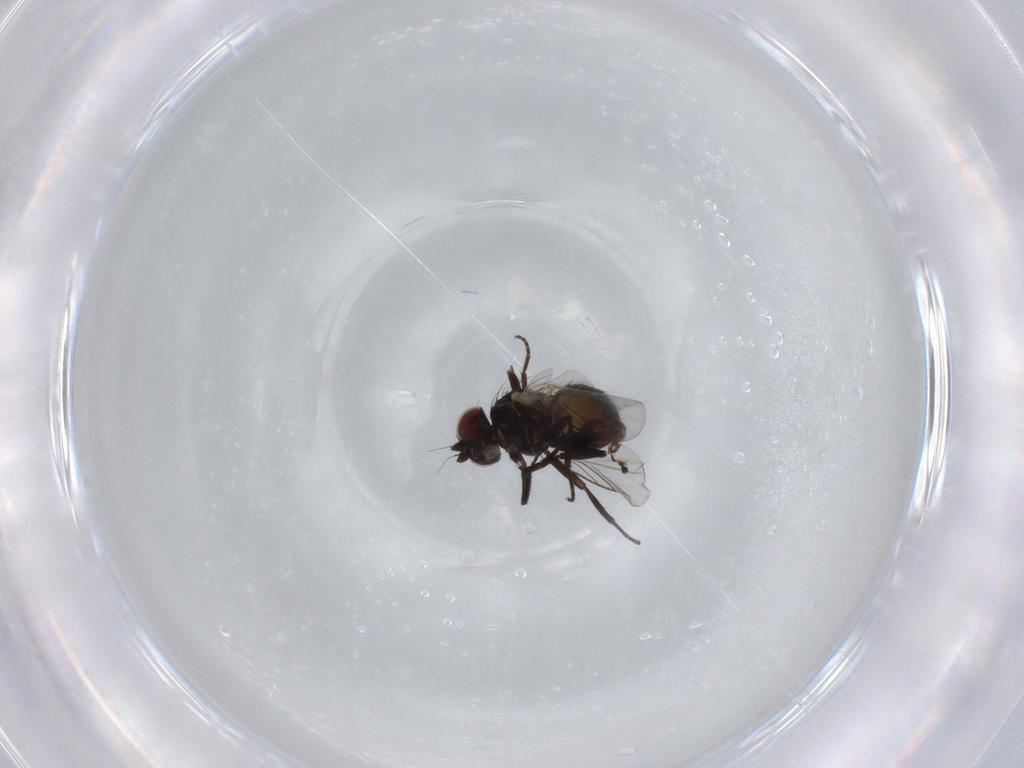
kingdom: Animalia
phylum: Arthropoda
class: Insecta
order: Diptera
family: Agromyzidae
